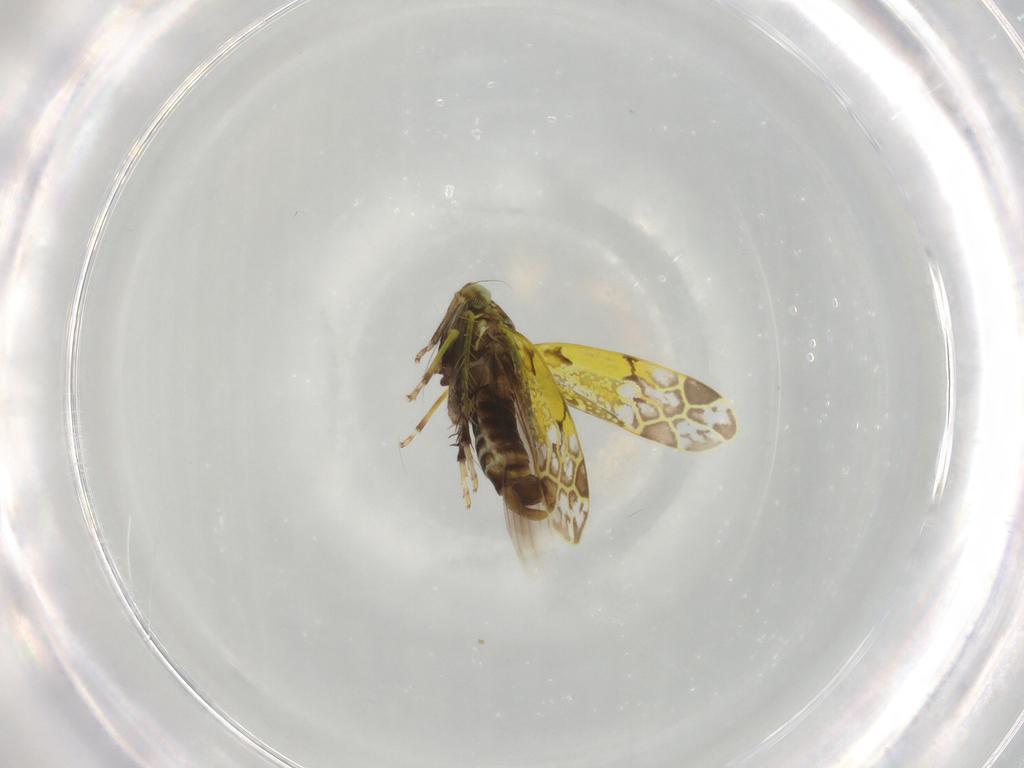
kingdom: Animalia
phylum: Arthropoda
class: Insecta
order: Hemiptera
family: Cicadellidae
